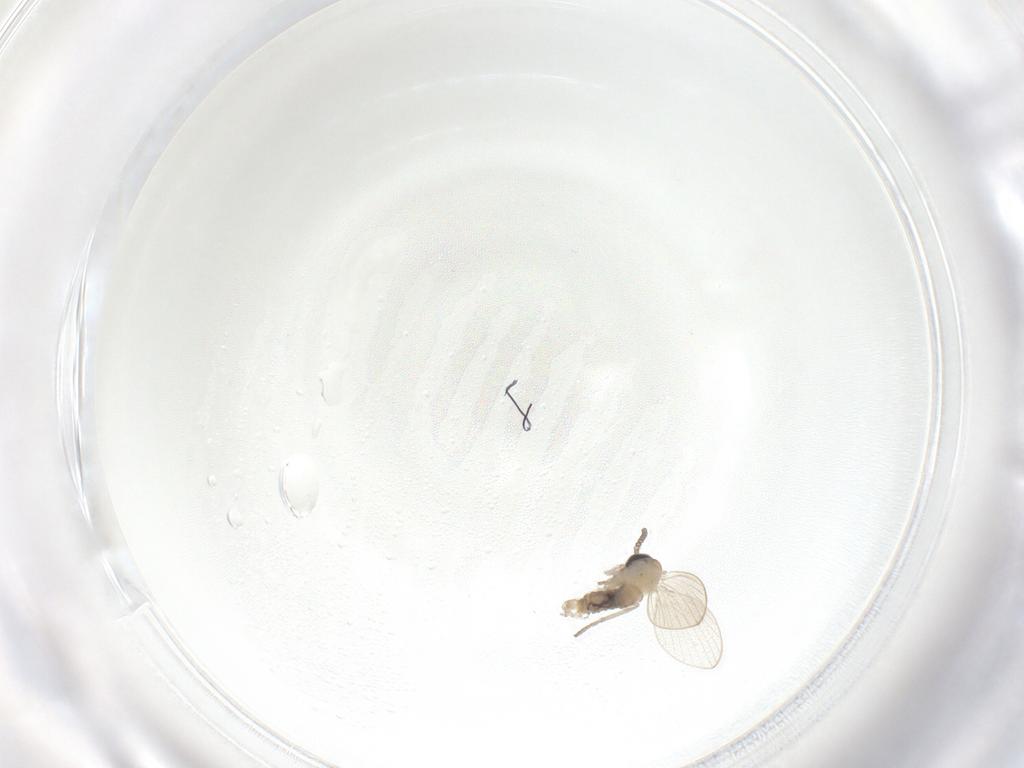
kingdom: Animalia
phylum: Arthropoda
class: Insecta
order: Diptera
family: Psychodidae
